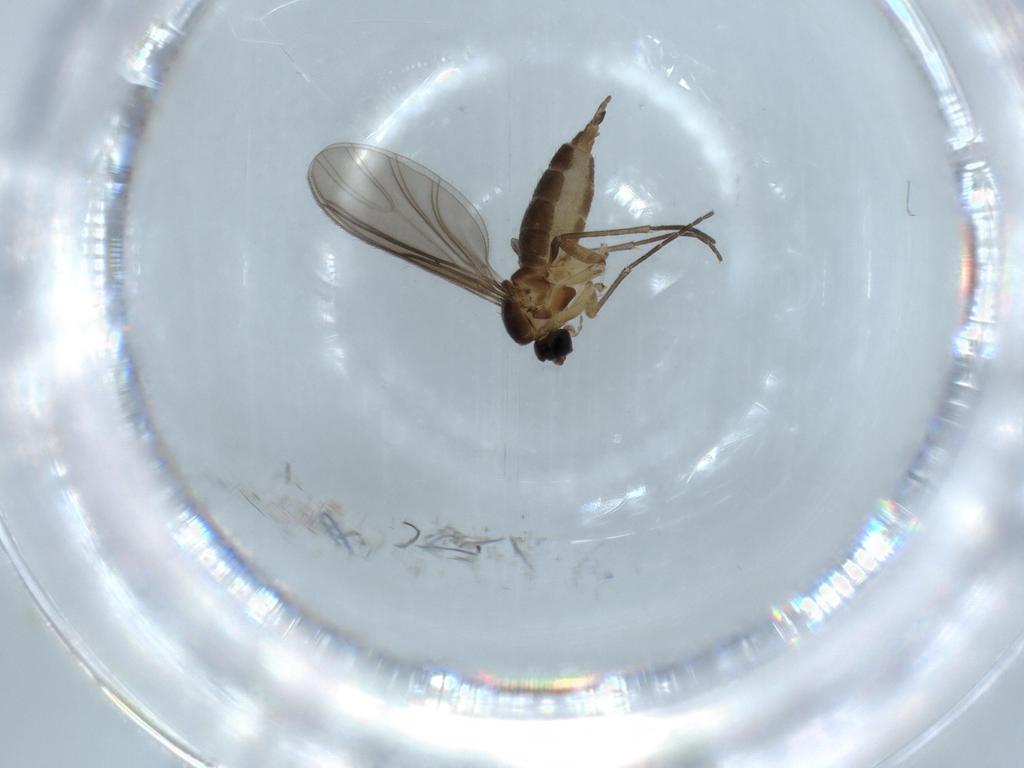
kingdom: Animalia
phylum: Arthropoda
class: Insecta
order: Diptera
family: Sciaridae
